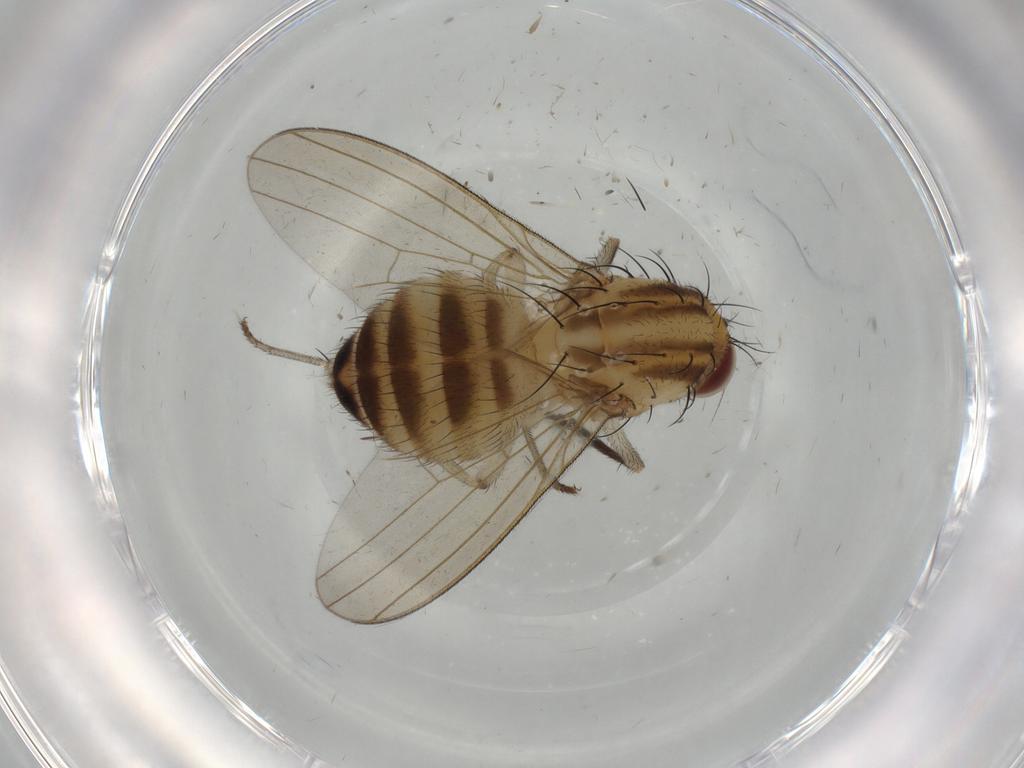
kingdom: Animalia
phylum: Arthropoda
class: Insecta
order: Diptera
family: Lauxaniidae
